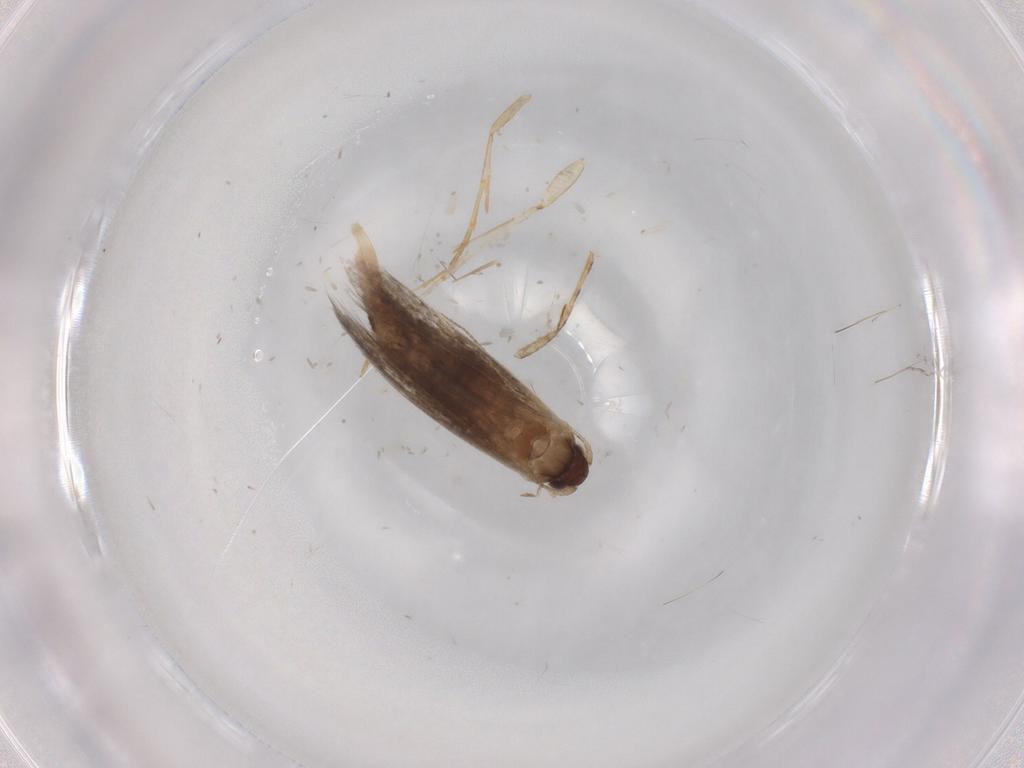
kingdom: Animalia
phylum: Arthropoda
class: Insecta
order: Lepidoptera
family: Tineidae
